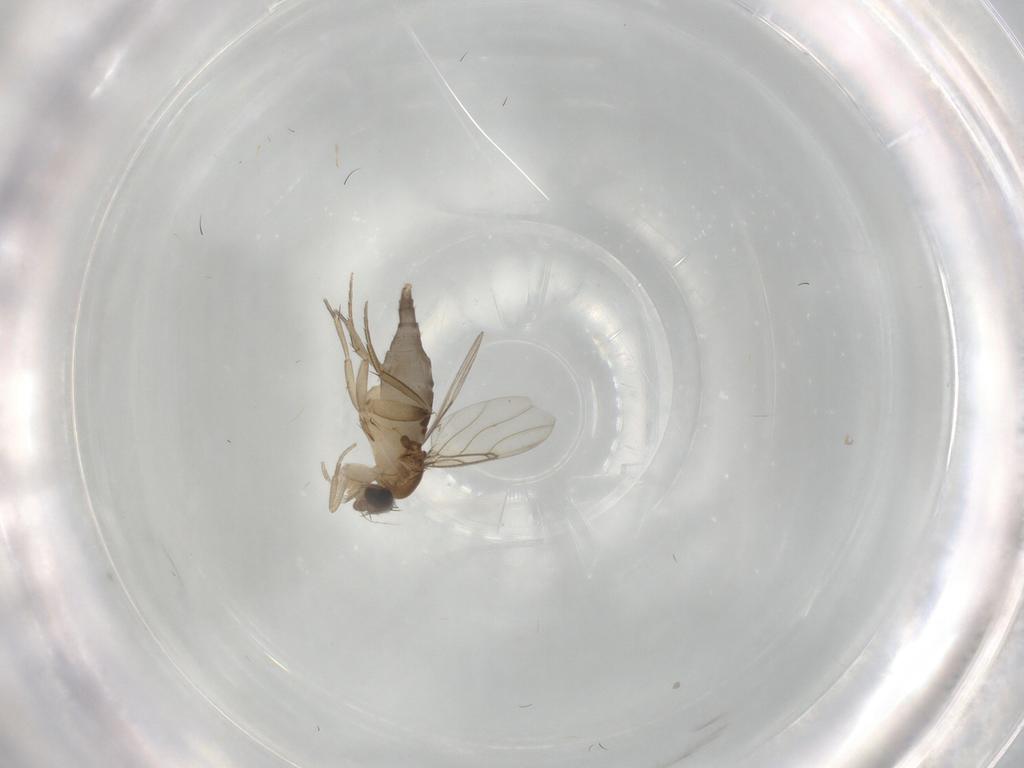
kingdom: Animalia
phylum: Arthropoda
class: Insecta
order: Diptera
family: Phoridae
